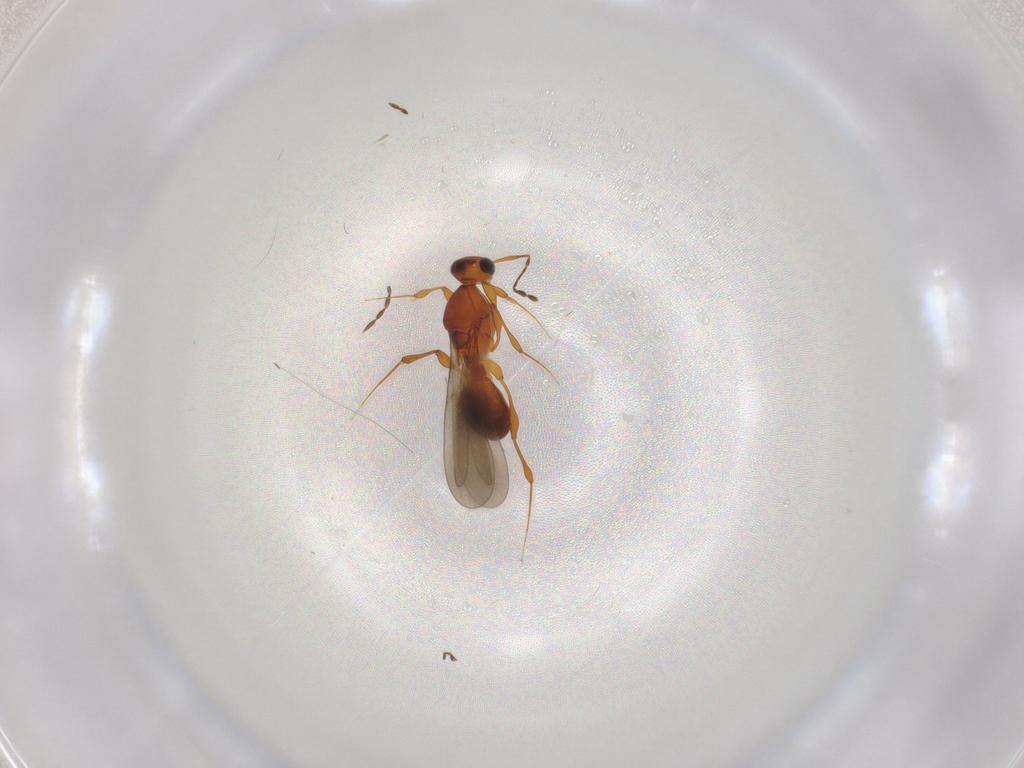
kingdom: Animalia
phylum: Arthropoda
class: Insecta
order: Hymenoptera
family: Platygastridae
